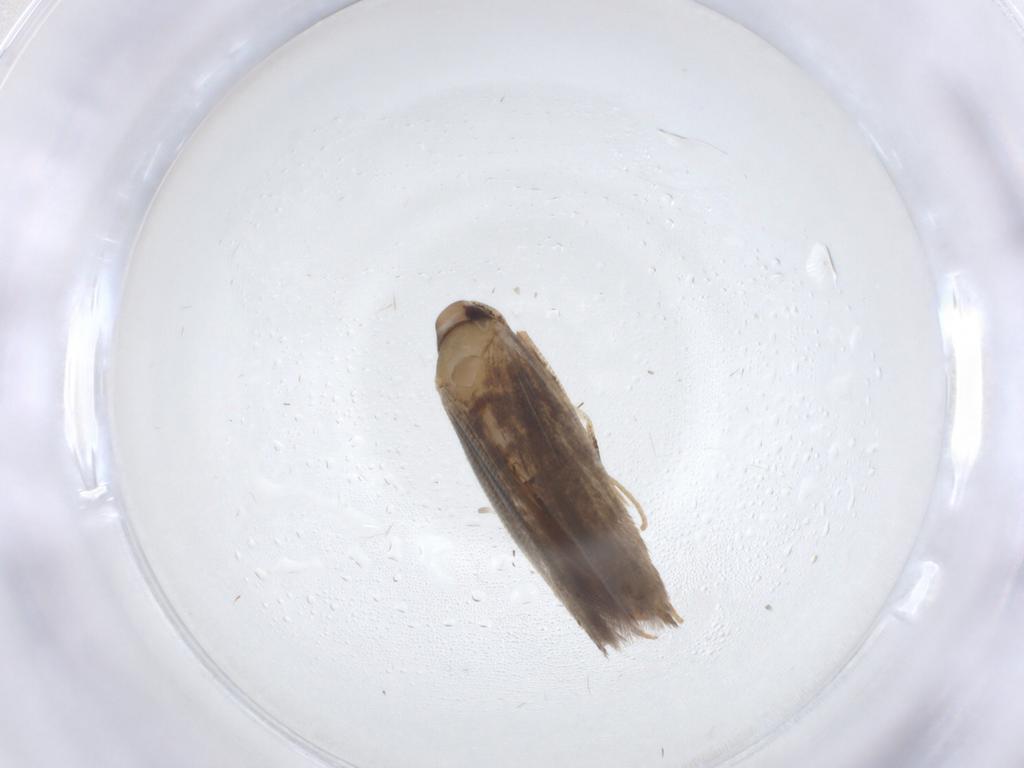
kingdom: Animalia
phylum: Arthropoda
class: Insecta
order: Lepidoptera
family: Cosmopterigidae
